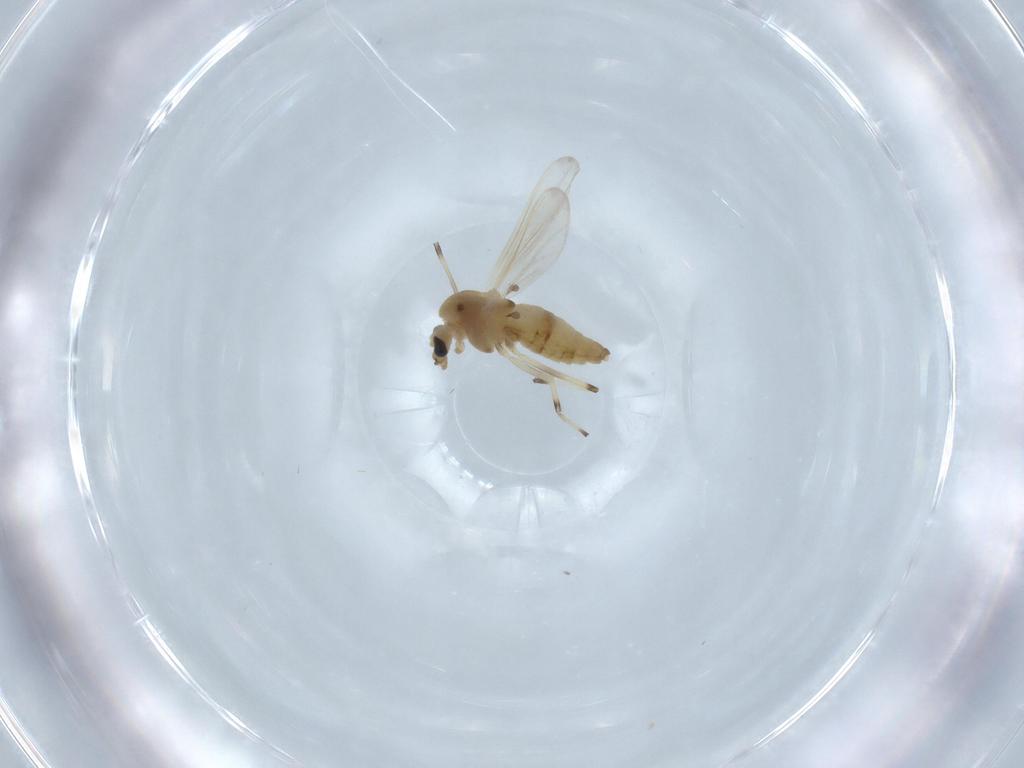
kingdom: Animalia
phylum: Arthropoda
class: Insecta
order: Diptera
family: Chironomidae
